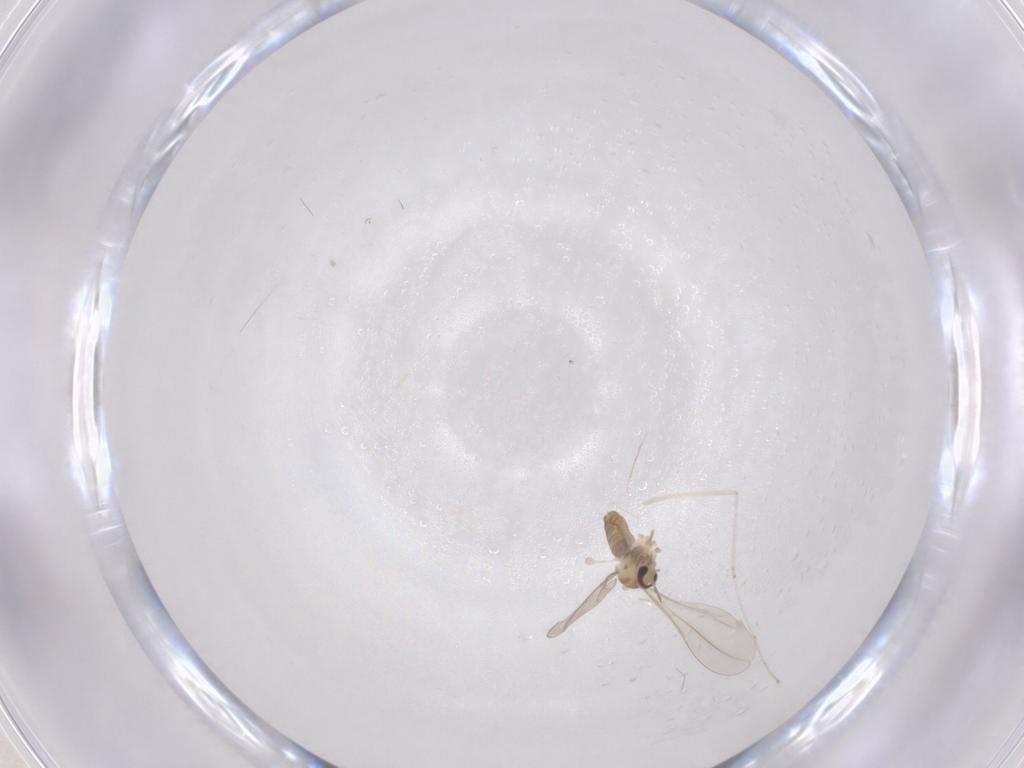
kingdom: Animalia
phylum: Arthropoda
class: Insecta
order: Diptera
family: Cecidomyiidae
